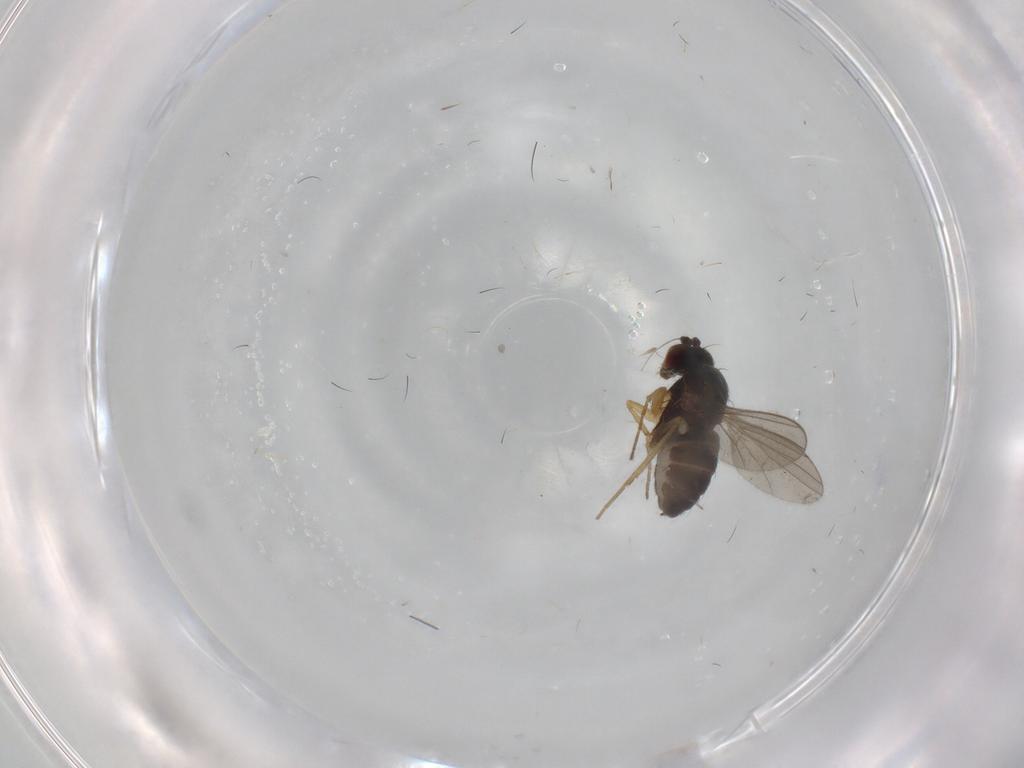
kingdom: Animalia
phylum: Arthropoda
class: Insecta
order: Diptera
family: Dolichopodidae
